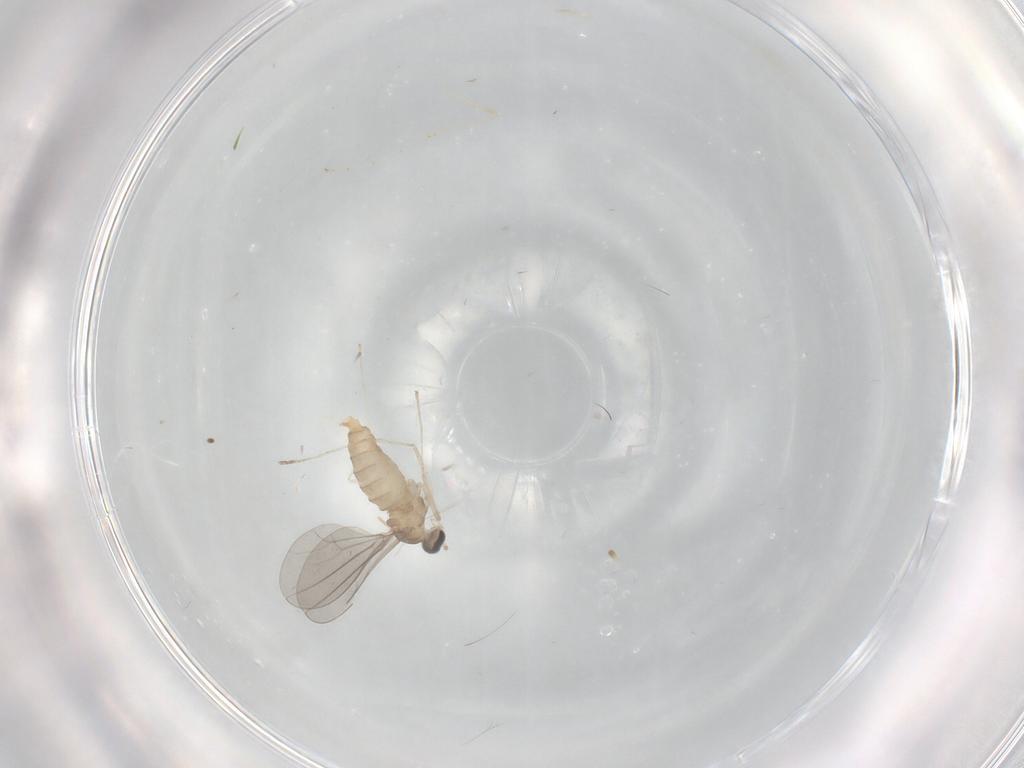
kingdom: Animalia
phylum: Arthropoda
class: Insecta
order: Diptera
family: Cecidomyiidae
